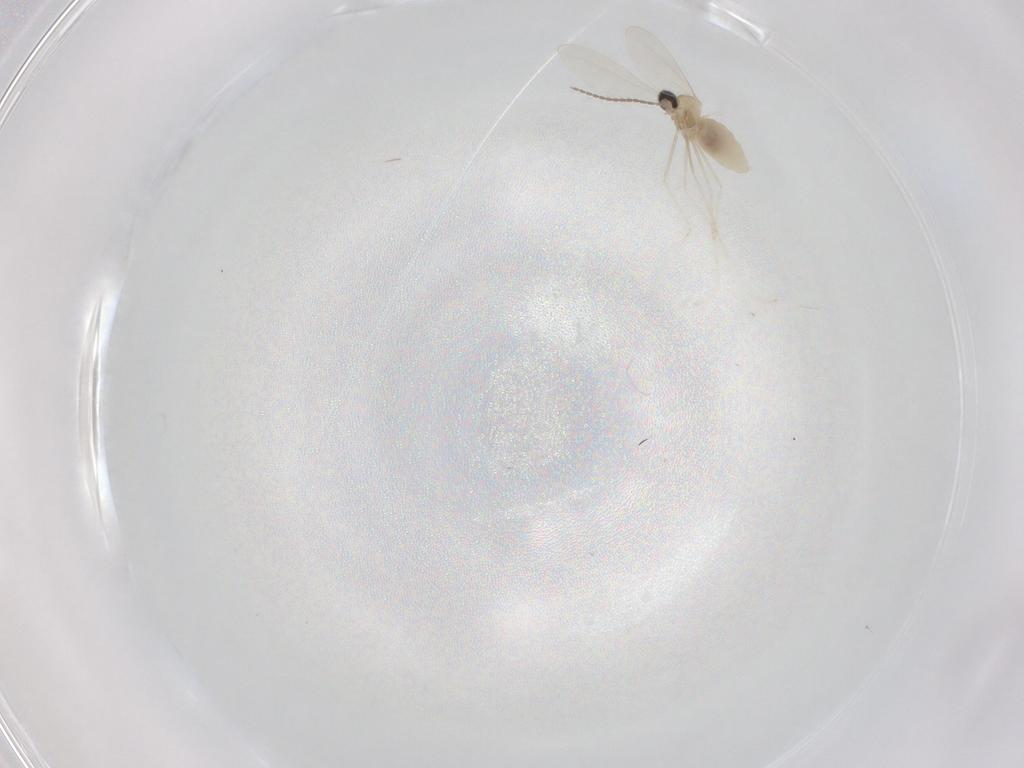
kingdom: Animalia
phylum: Arthropoda
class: Insecta
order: Diptera
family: Cecidomyiidae
